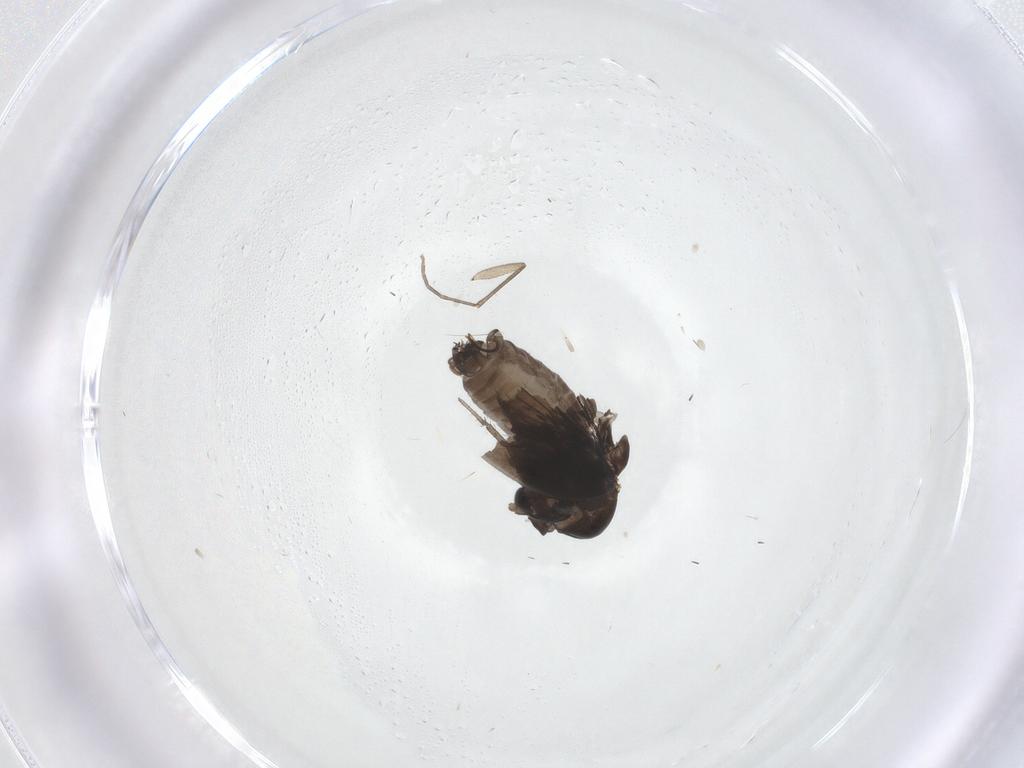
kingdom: Animalia
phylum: Arthropoda
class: Insecta
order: Diptera
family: Psychodidae
